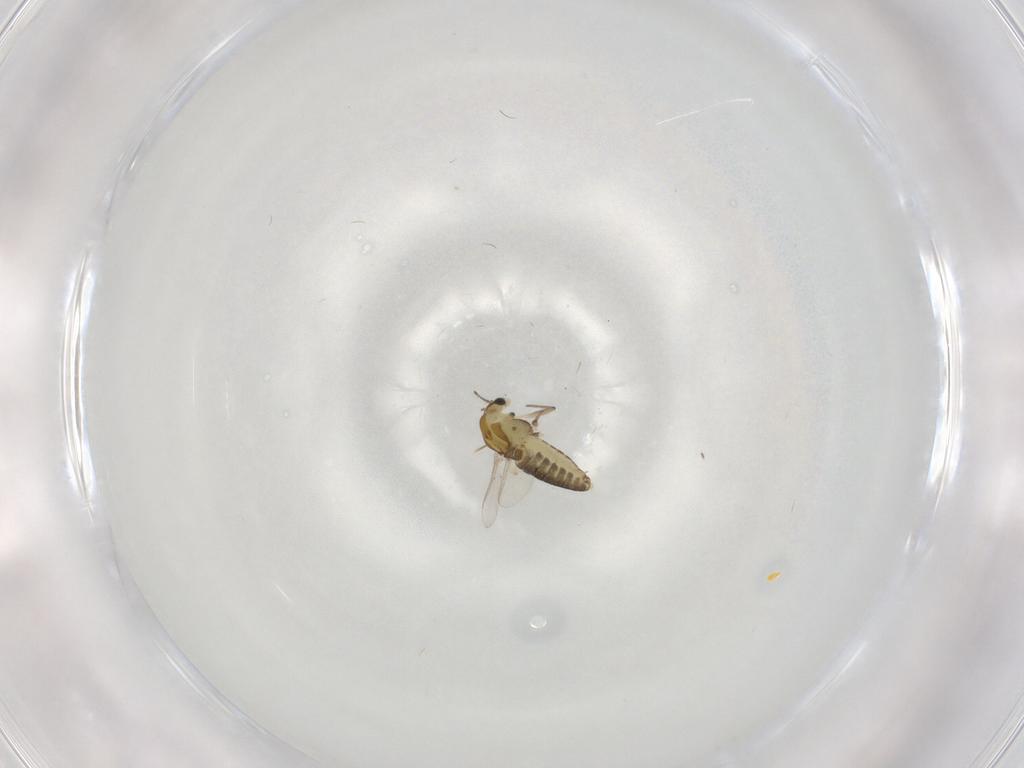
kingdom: Animalia
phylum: Arthropoda
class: Insecta
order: Diptera
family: Chironomidae
